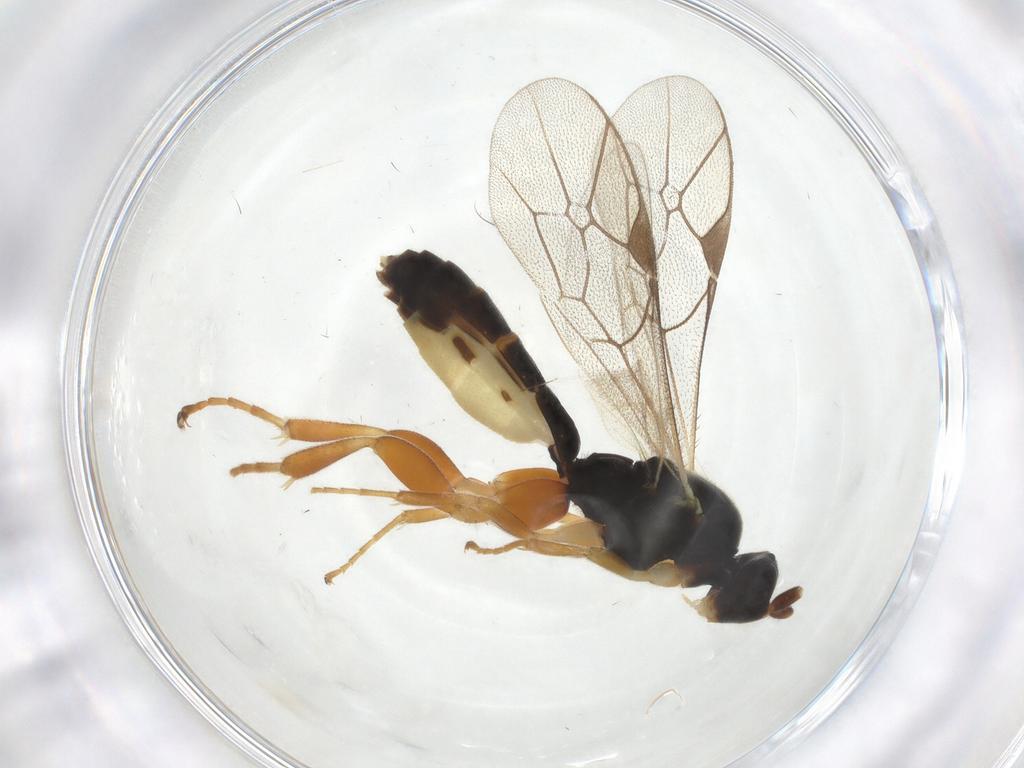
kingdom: Animalia
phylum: Arthropoda
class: Insecta
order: Hymenoptera
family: Ichneumonidae
